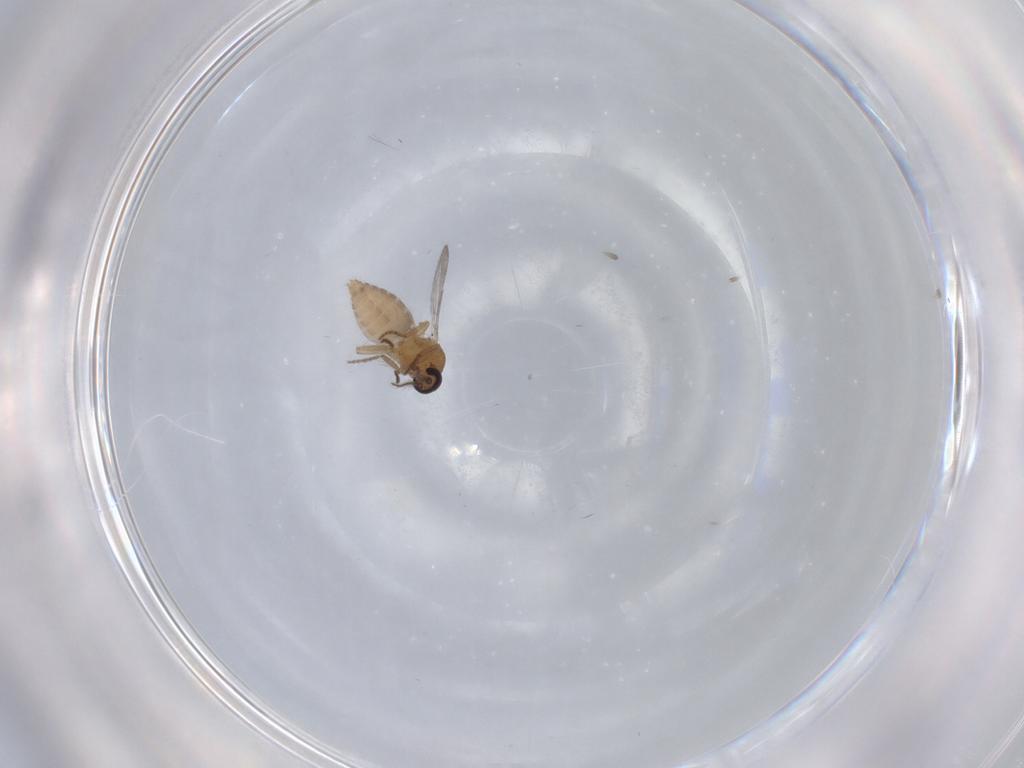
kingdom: Animalia
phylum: Arthropoda
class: Insecta
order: Diptera
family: Ceratopogonidae
